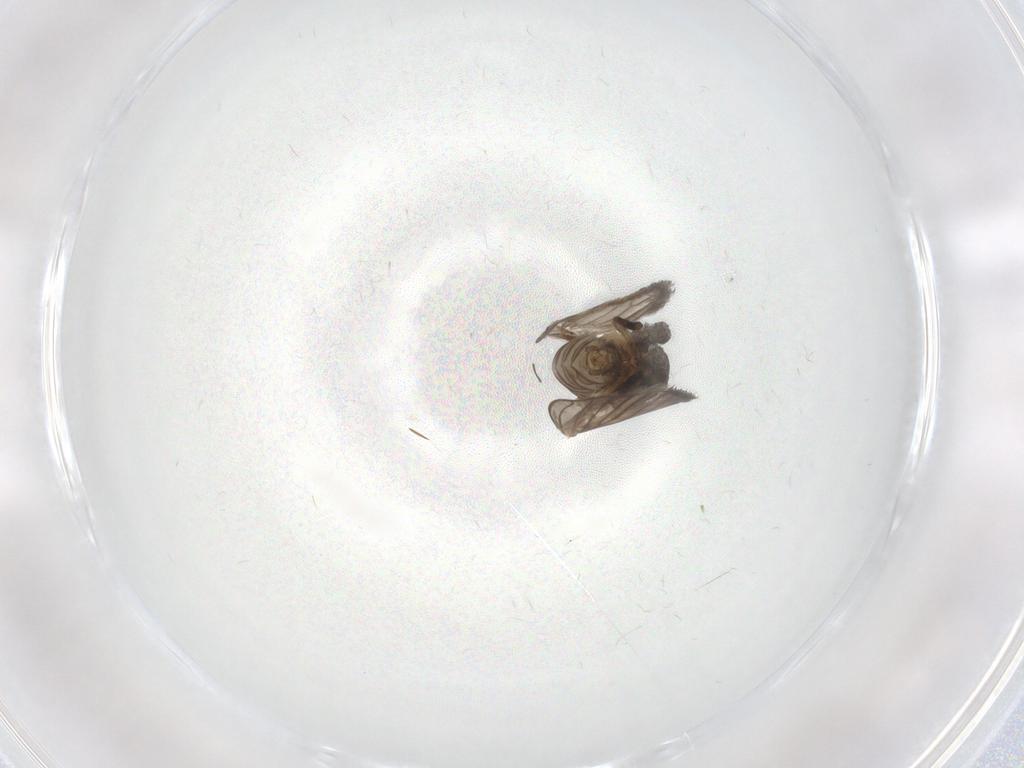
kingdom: Animalia
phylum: Arthropoda
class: Insecta
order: Diptera
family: Psychodidae
